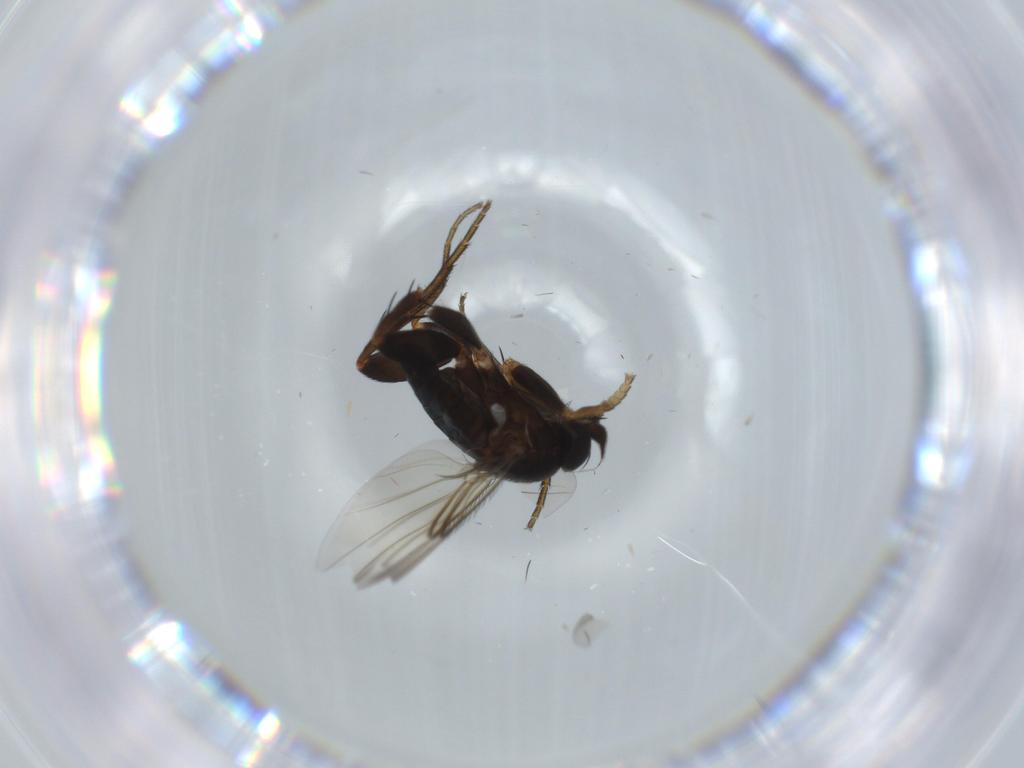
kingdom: Animalia
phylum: Arthropoda
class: Insecta
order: Diptera
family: Phoridae
